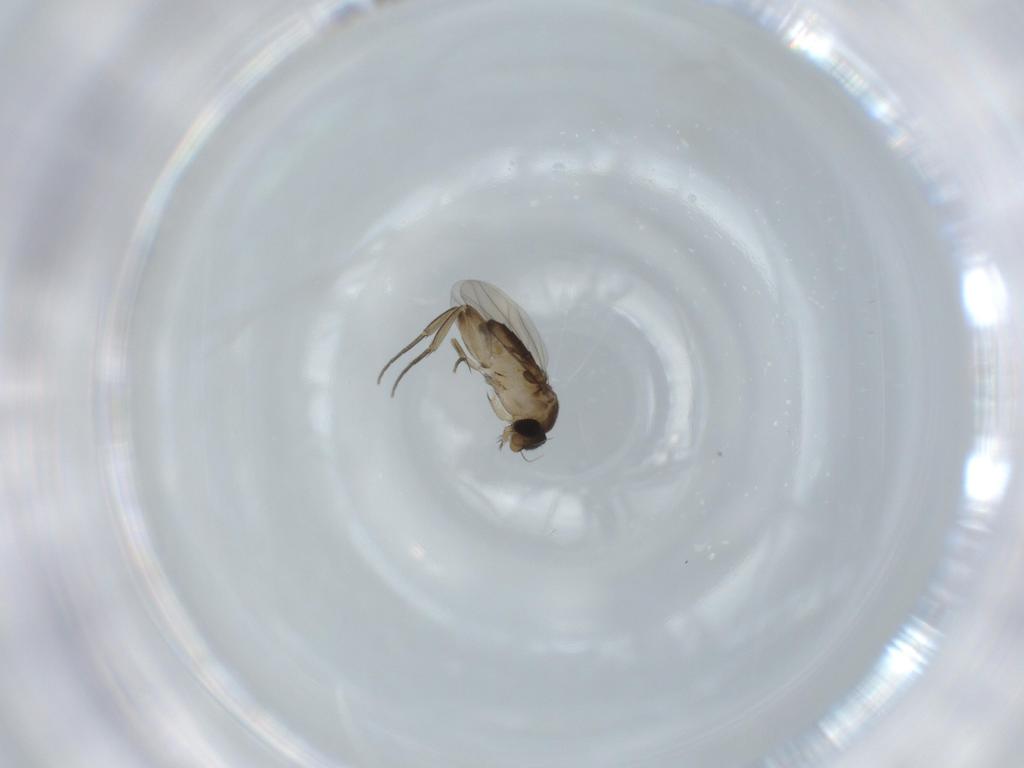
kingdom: Animalia
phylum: Arthropoda
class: Insecta
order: Diptera
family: Phoridae
